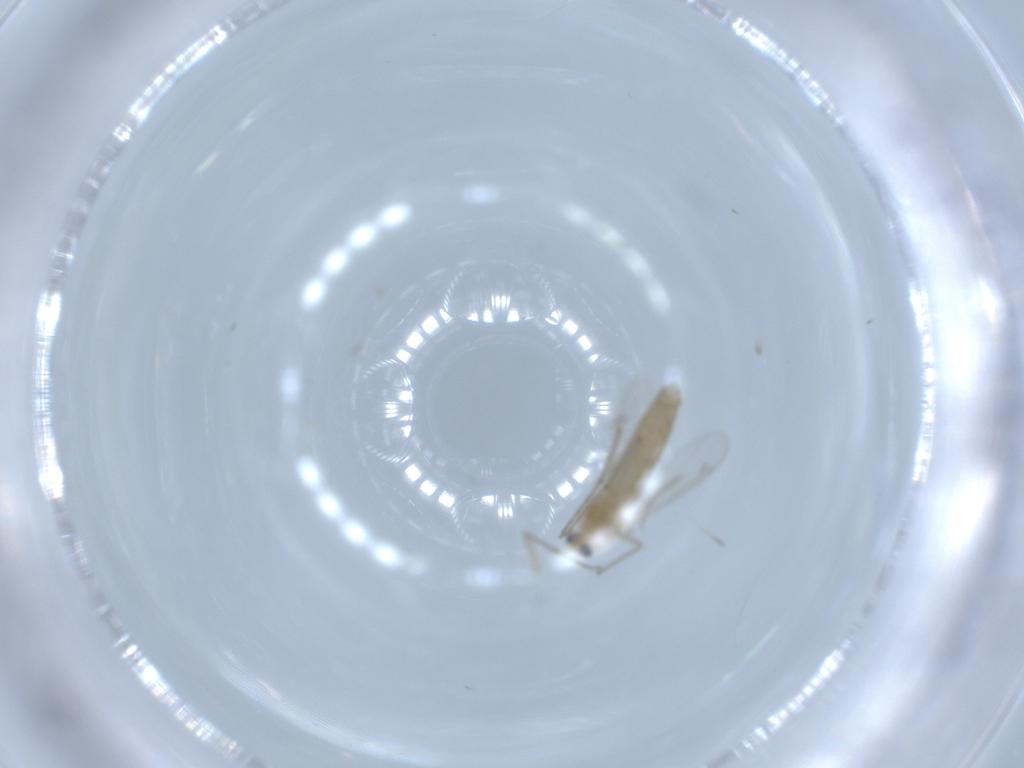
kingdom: Animalia
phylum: Arthropoda
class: Insecta
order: Diptera
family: Chironomidae
